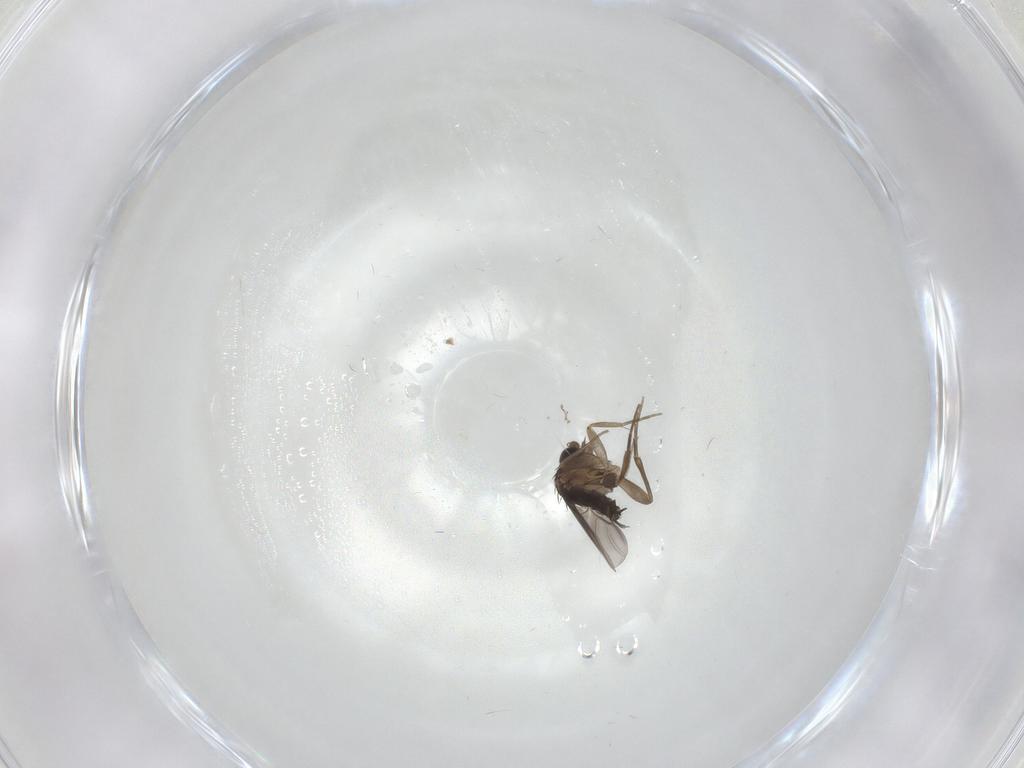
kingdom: Animalia
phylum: Arthropoda
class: Insecta
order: Diptera
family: Phoridae
